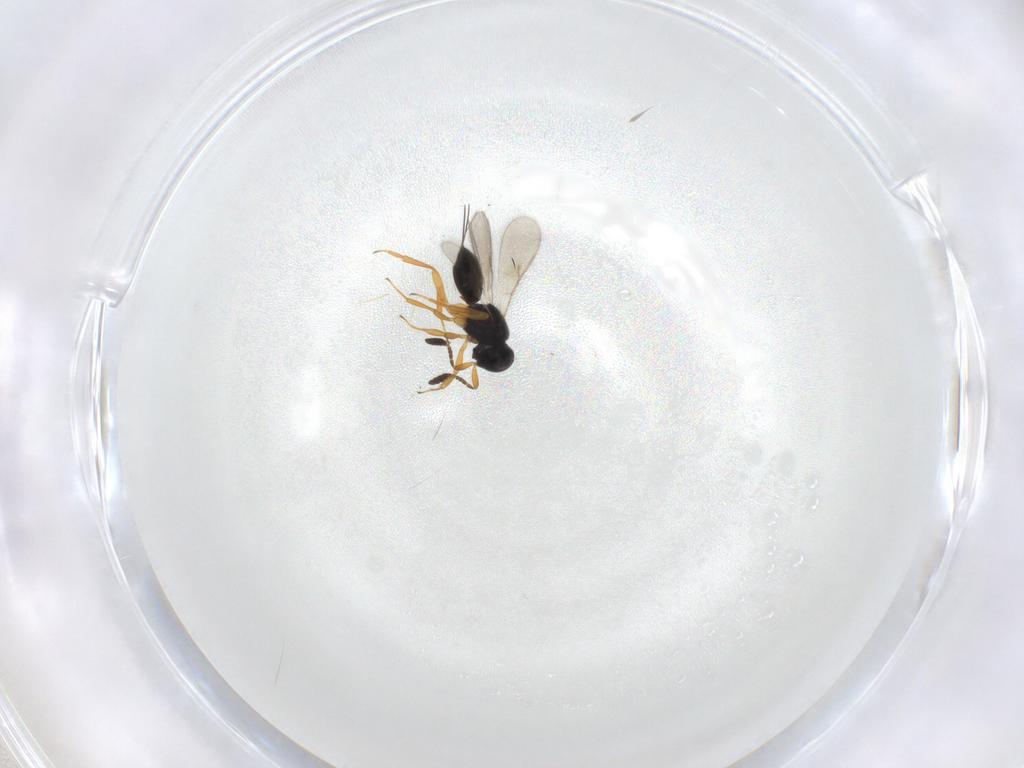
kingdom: Animalia
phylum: Arthropoda
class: Insecta
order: Hymenoptera
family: Scelionidae
